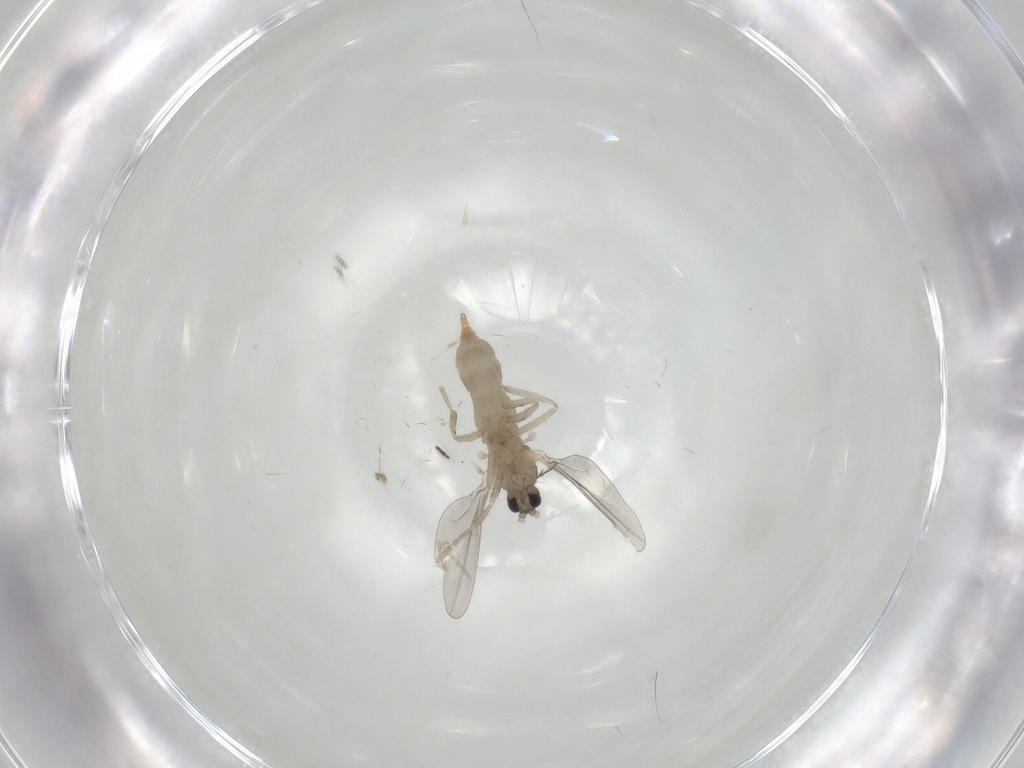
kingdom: Animalia
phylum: Arthropoda
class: Insecta
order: Diptera
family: Cecidomyiidae
